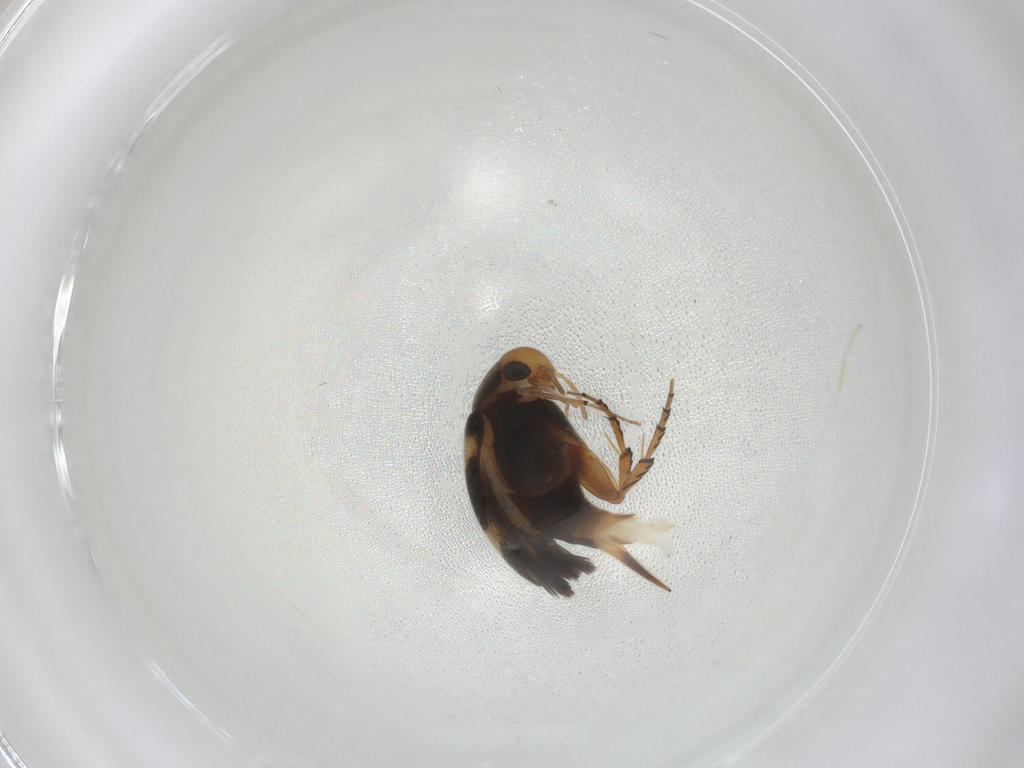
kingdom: Animalia
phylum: Arthropoda
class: Insecta
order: Coleoptera
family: Mordellidae
